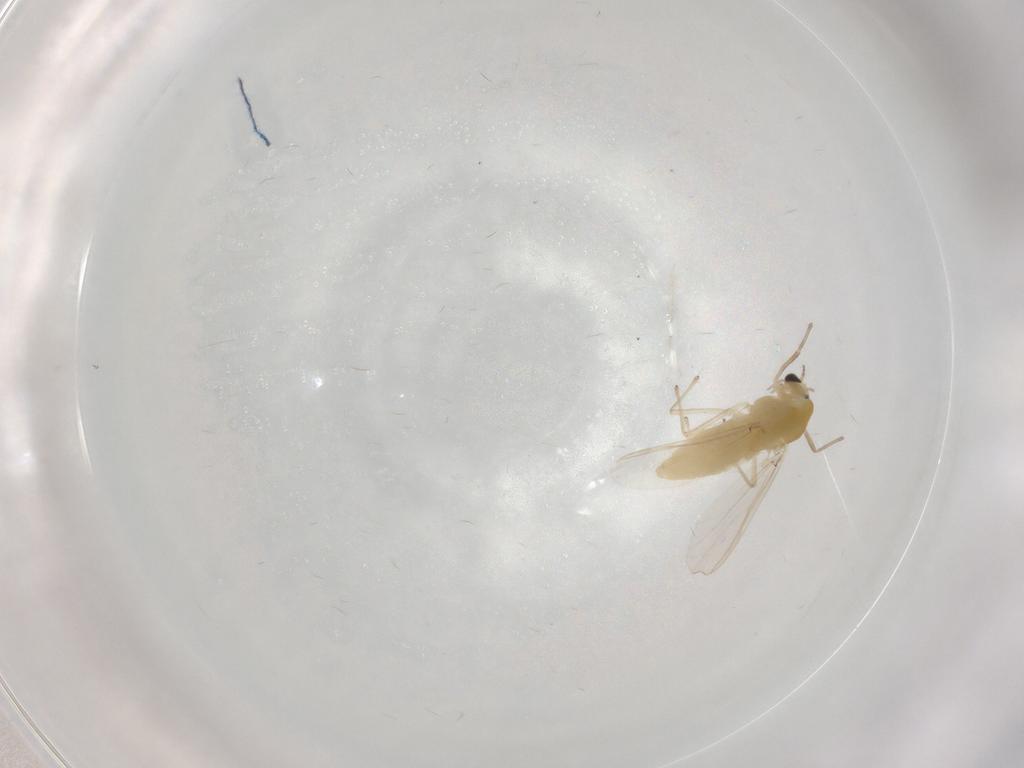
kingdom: Animalia
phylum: Arthropoda
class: Insecta
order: Diptera
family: Chironomidae
